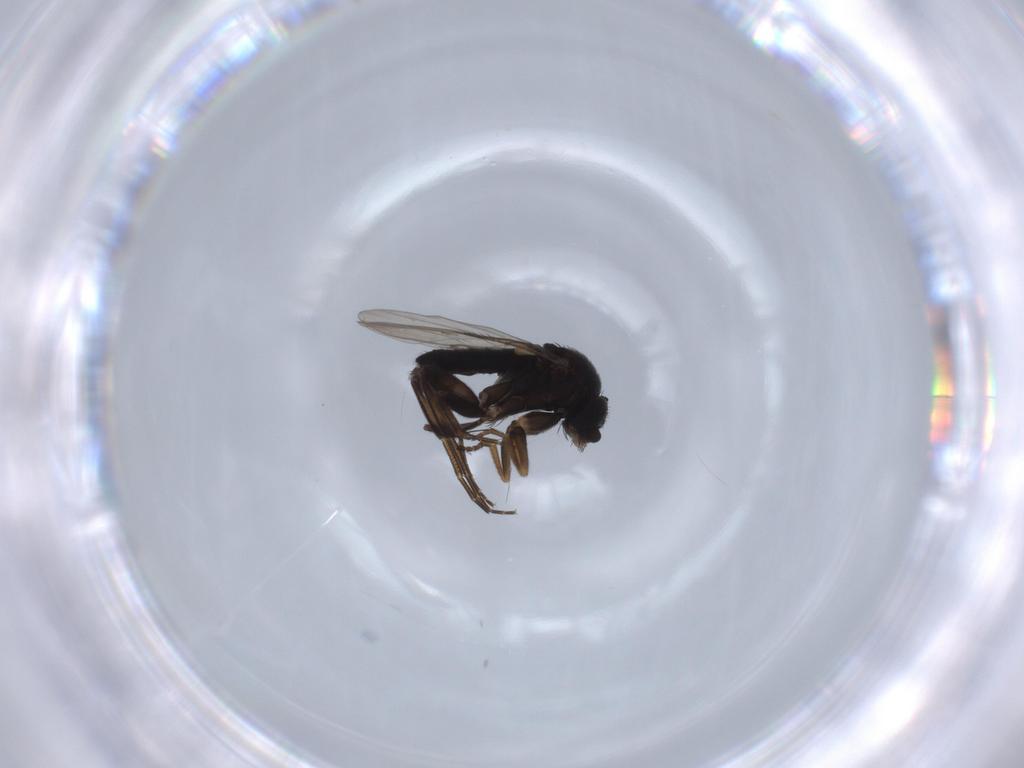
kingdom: Animalia
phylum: Arthropoda
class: Insecta
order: Diptera
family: Phoridae
